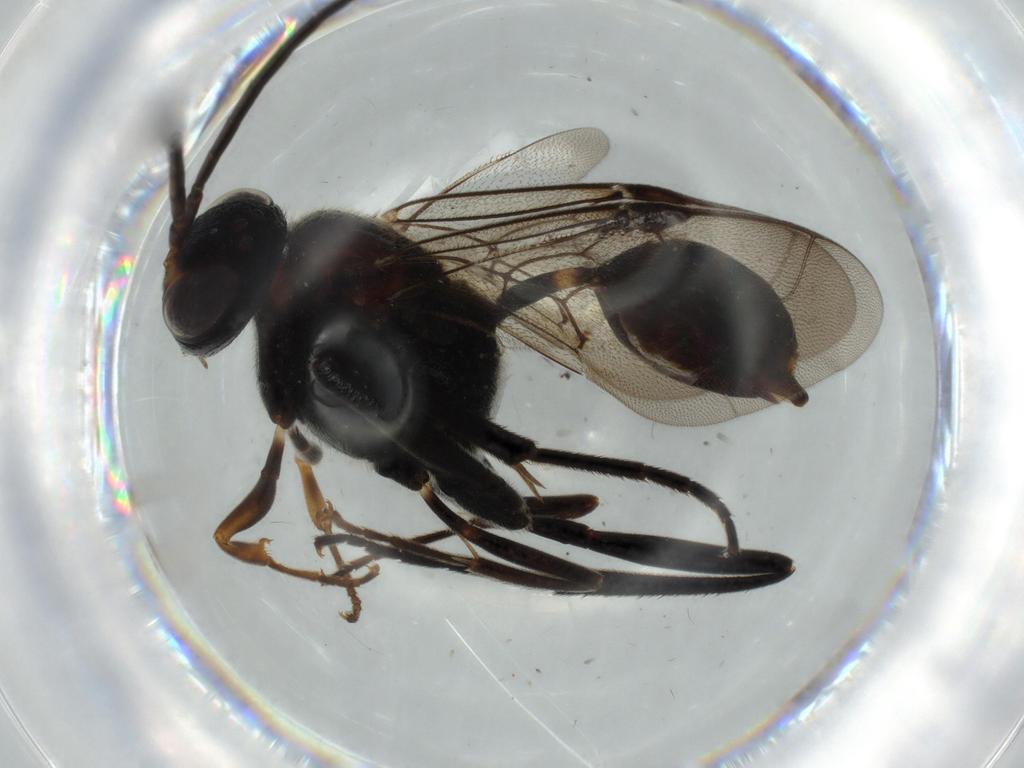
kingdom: Animalia
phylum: Arthropoda
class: Insecta
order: Hymenoptera
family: Evaniidae
